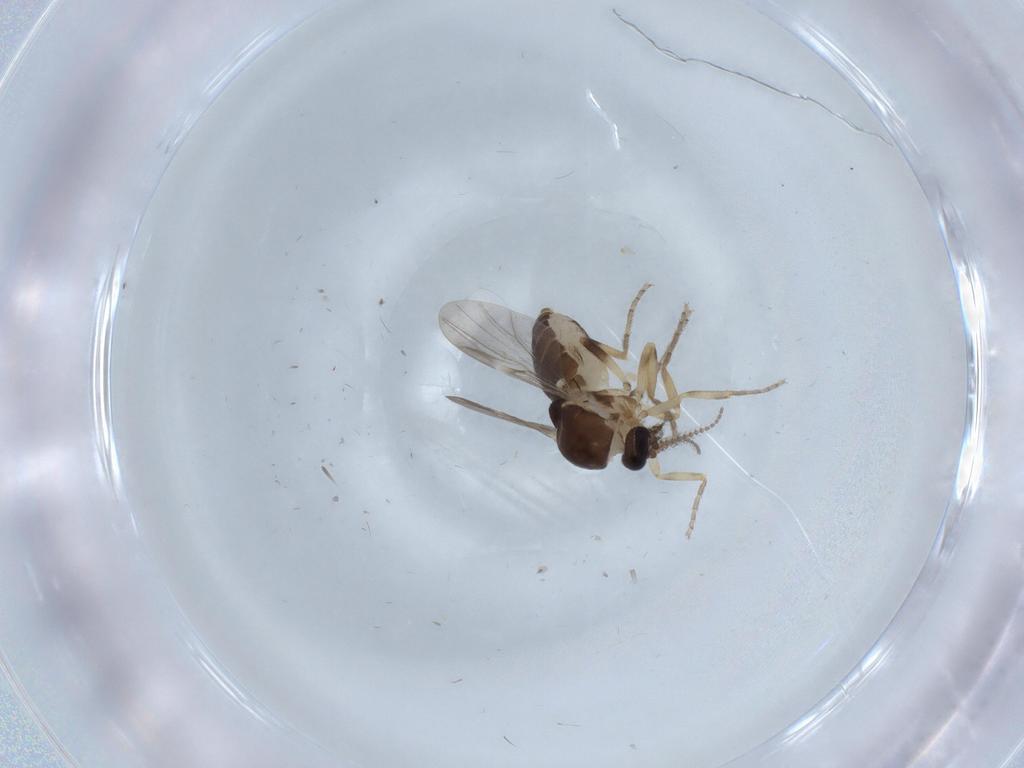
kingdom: Animalia
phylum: Arthropoda
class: Insecta
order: Diptera
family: Ceratopogonidae
